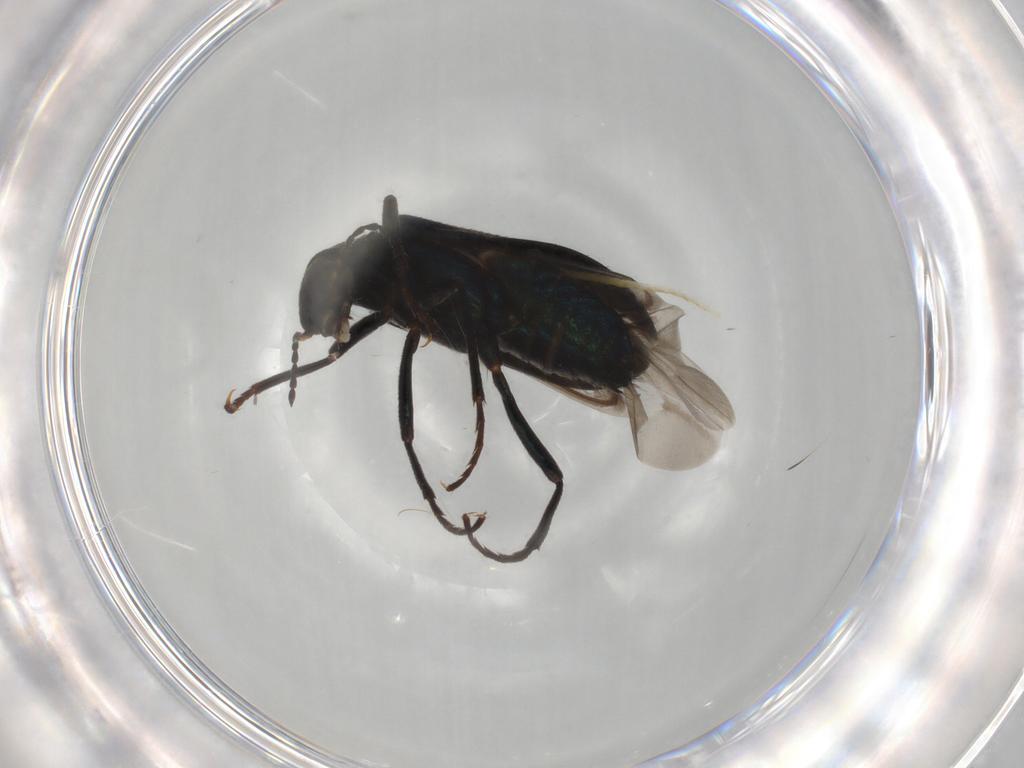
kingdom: Animalia
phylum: Arthropoda
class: Insecta
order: Coleoptera
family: Melyridae
